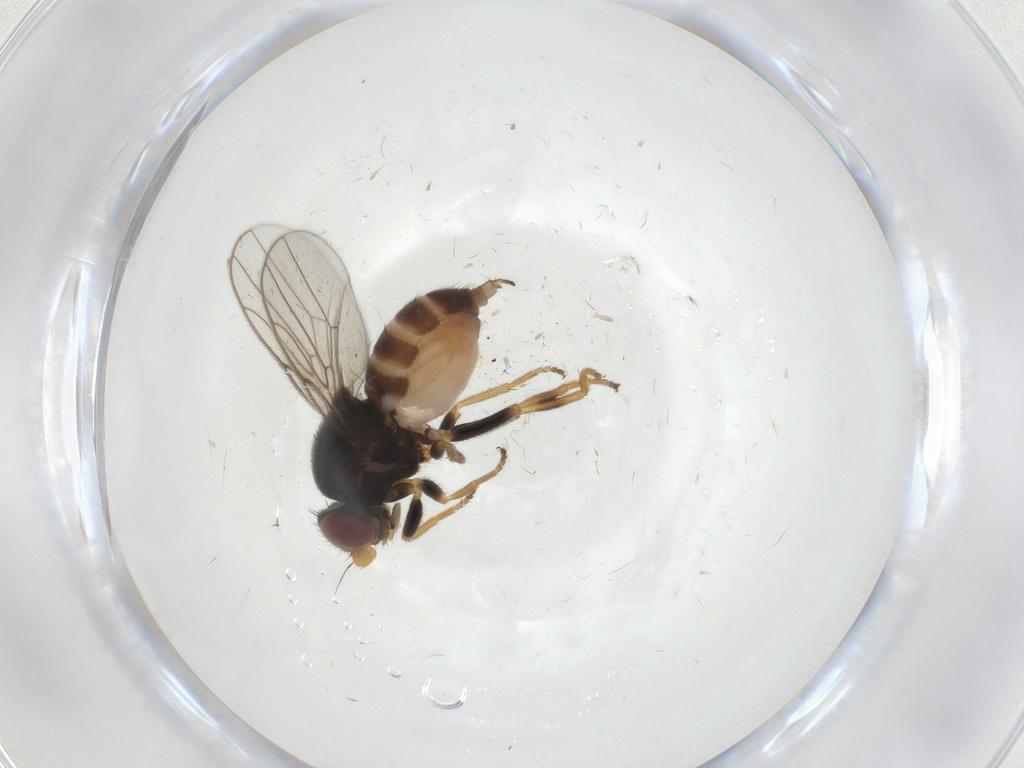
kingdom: Animalia
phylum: Arthropoda
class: Insecta
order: Diptera
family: Chloropidae
